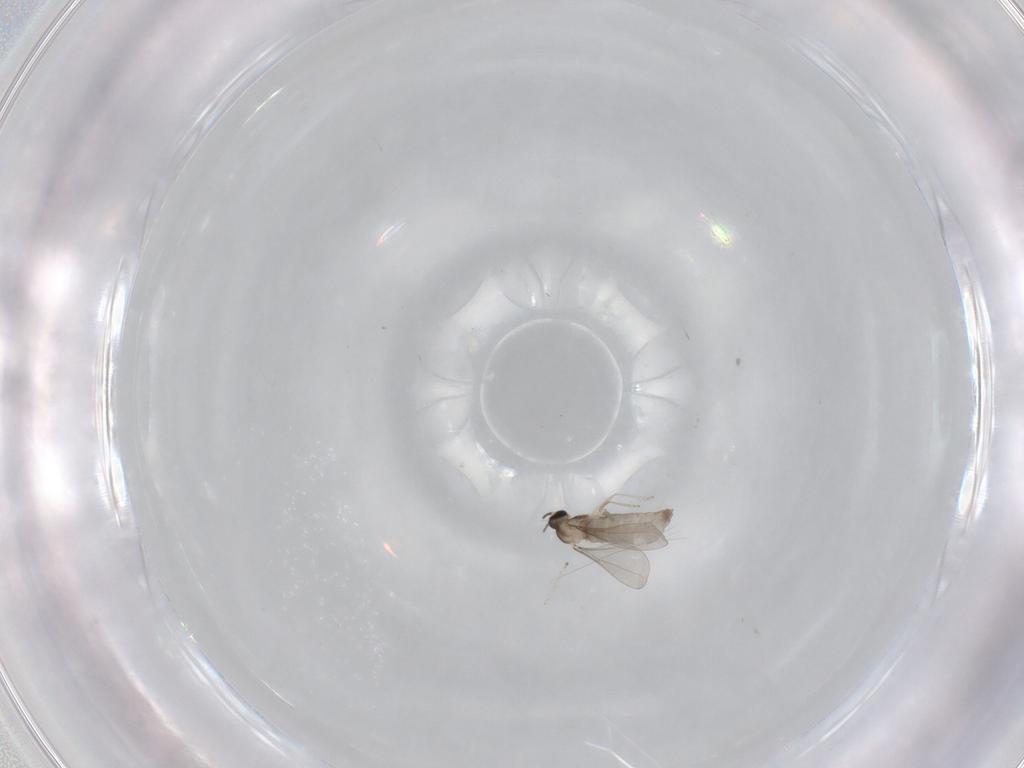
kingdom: Animalia
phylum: Arthropoda
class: Insecta
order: Diptera
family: Cecidomyiidae
